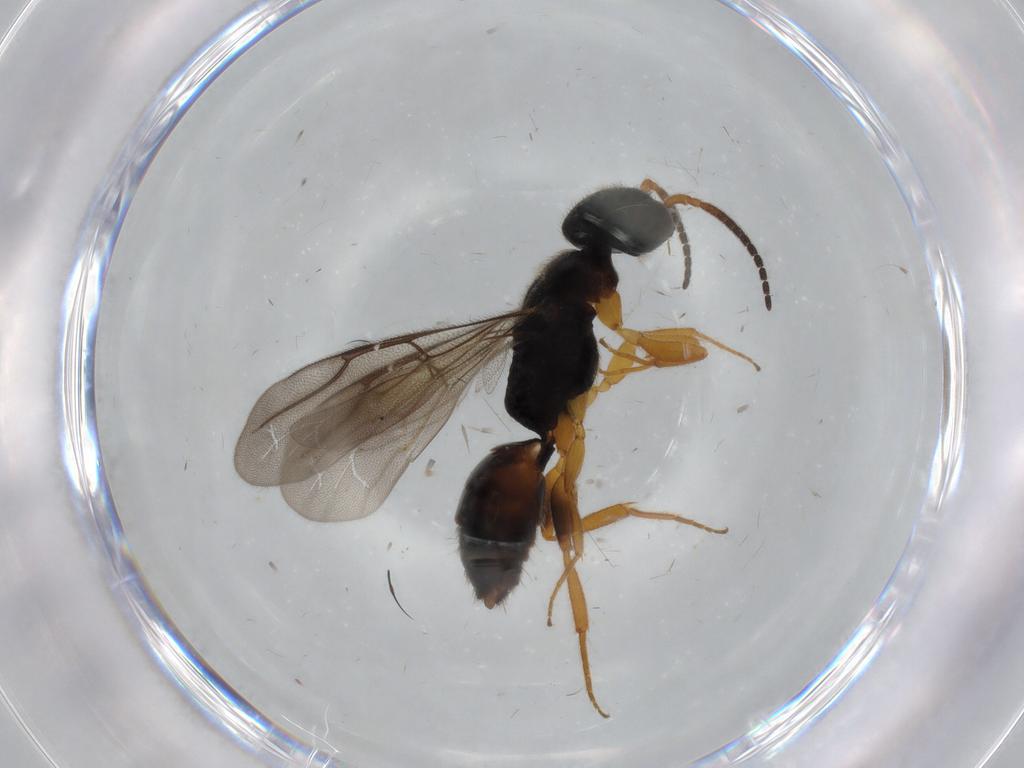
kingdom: Animalia
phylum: Arthropoda
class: Insecta
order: Hymenoptera
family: Bethylidae
